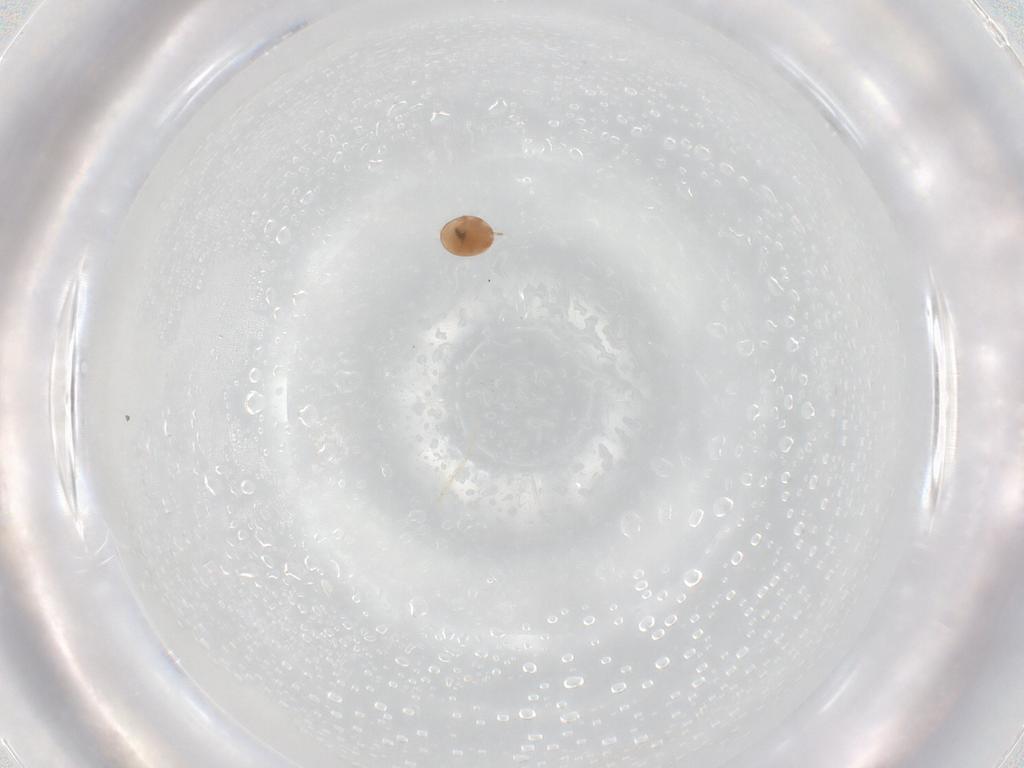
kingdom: Animalia
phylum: Arthropoda
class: Arachnida
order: Mesostigmata
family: Trematuridae
